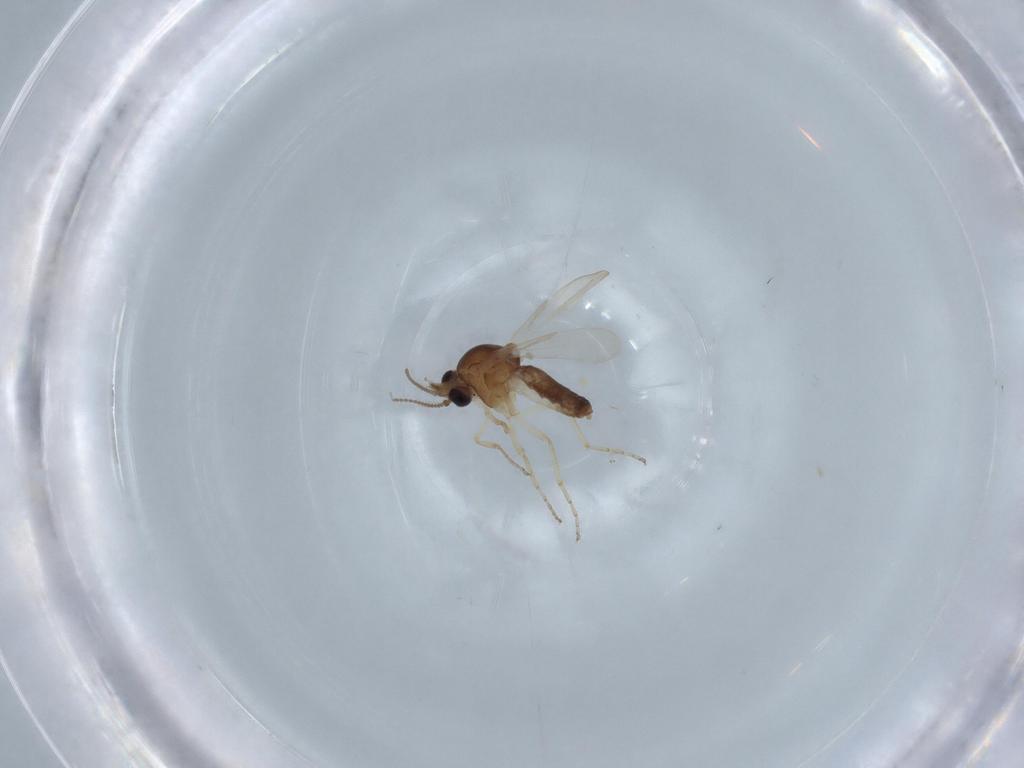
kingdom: Animalia
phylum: Arthropoda
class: Insecta
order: Diptera
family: Ceratopogonidae
